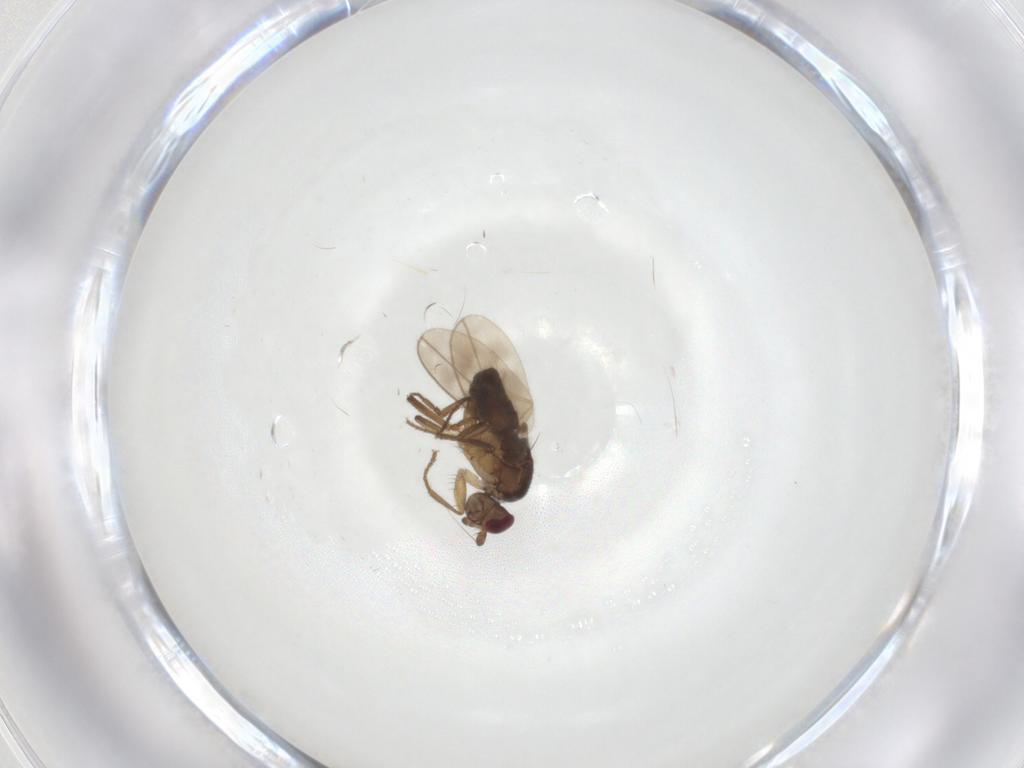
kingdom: Animalia
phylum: Arthropoda
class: Insecta
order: Diptera
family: Sphaeroceridae
